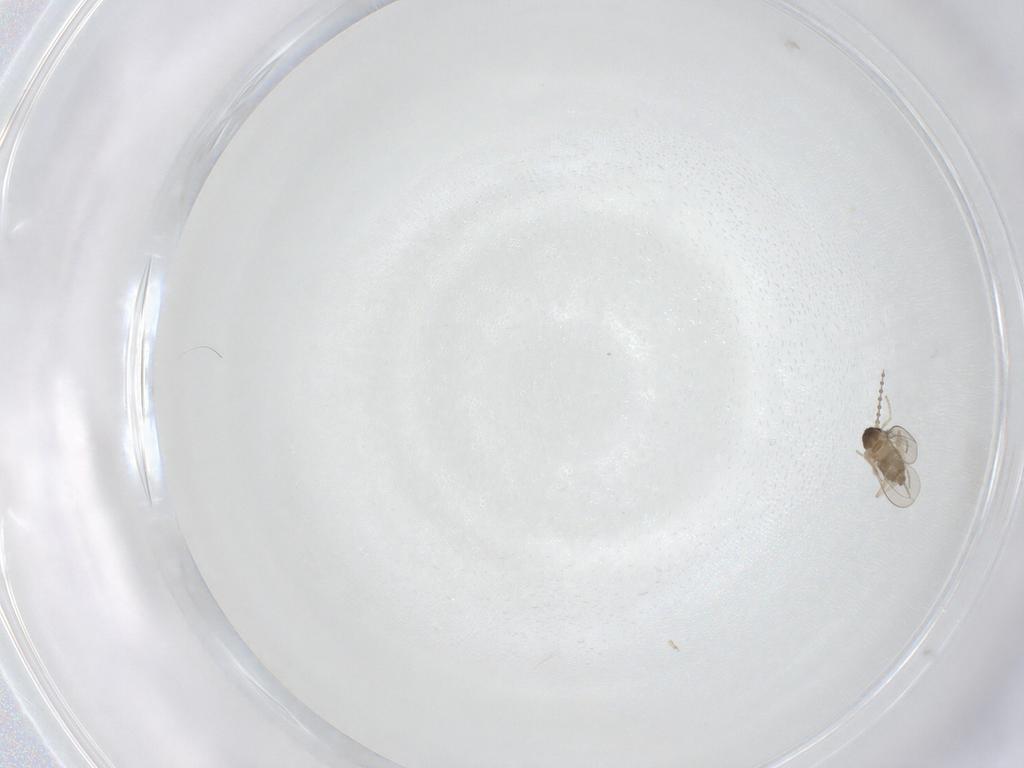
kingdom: Animalia
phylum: Arthropoda
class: Insecta
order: Diptera
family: Cecidomyiidae
